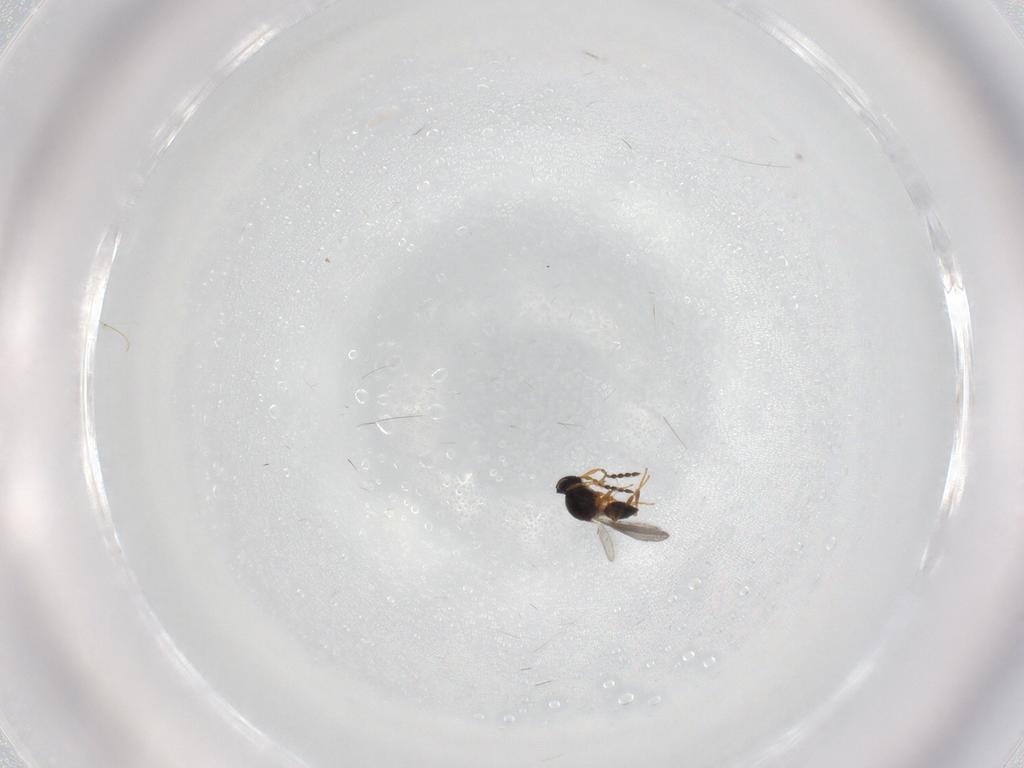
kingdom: Animalia
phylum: Arthropoda
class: Insecta
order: Hymenoptera
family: Platygastridae
